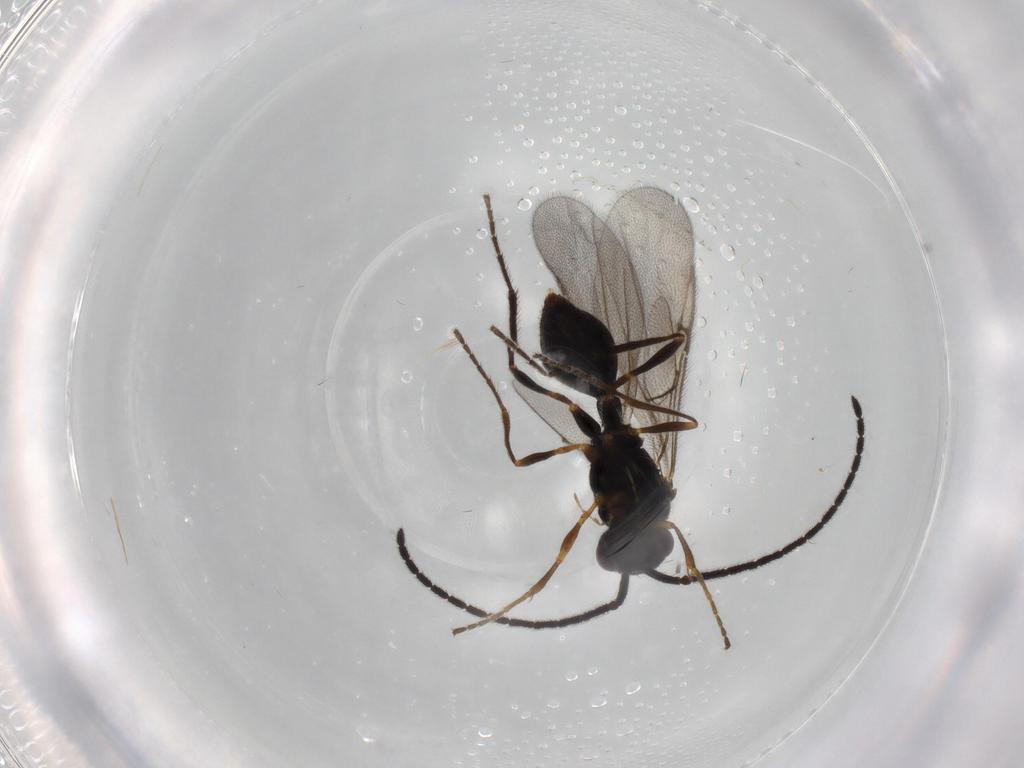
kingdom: Animalia
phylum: Arthropoda
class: Insecta
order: Hymenoptera
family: Diapriidae
